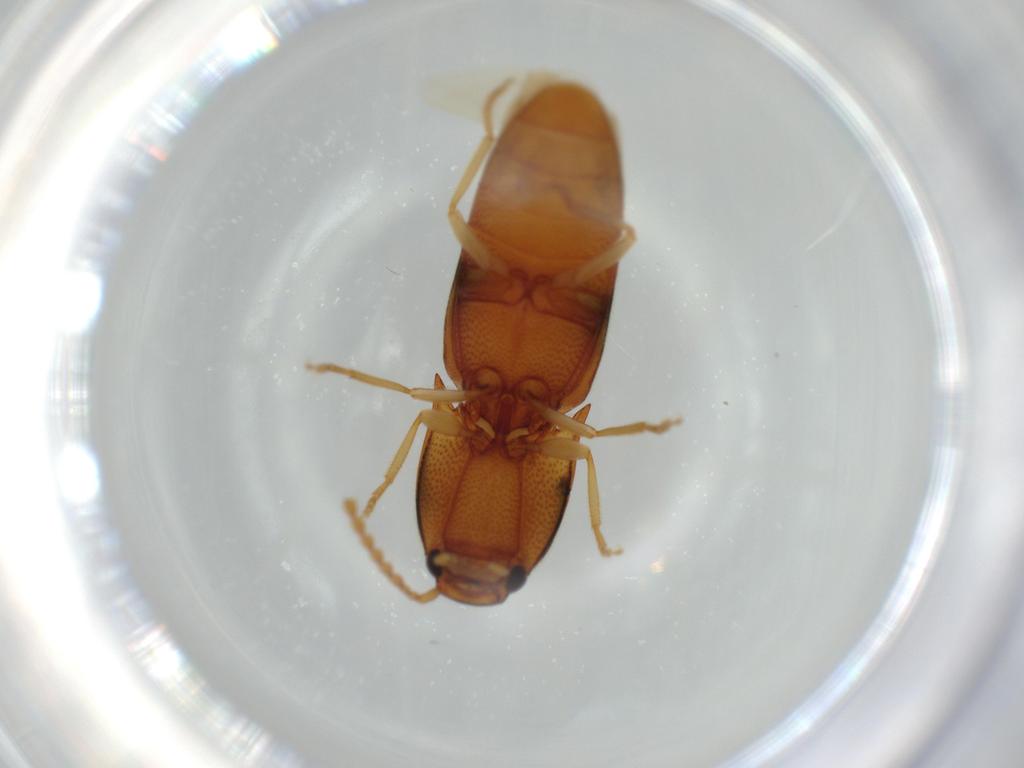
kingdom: Animalia
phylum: Arthropoda
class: Insecta
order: Coleoptera
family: Elateridae
